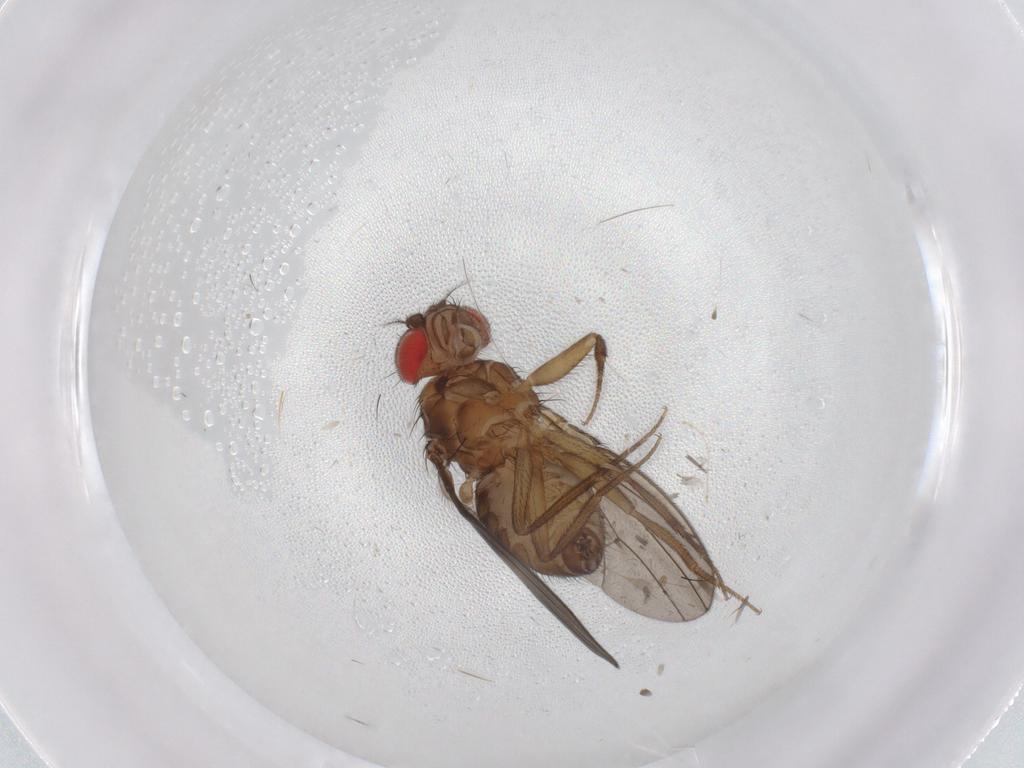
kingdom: Animalia
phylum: Arthropoda
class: Insecta
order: Diptera
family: Drosophilidae
